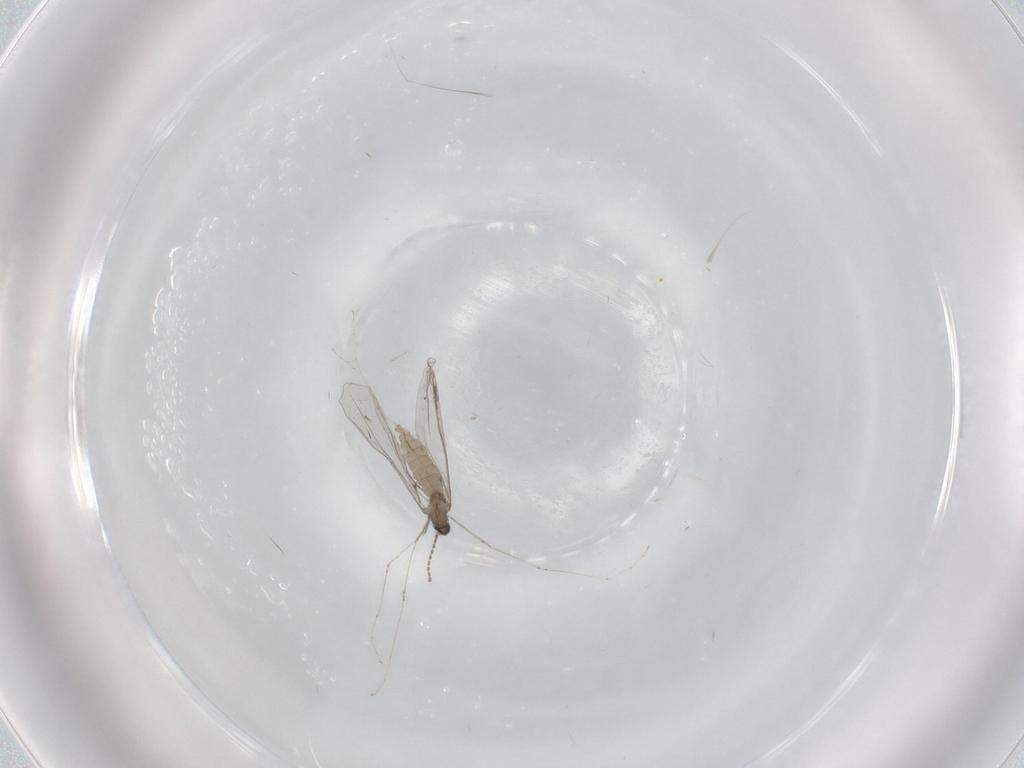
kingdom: Animalia
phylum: Arthropoda
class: Insecta
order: Diptera
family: Cecidomyiidae
